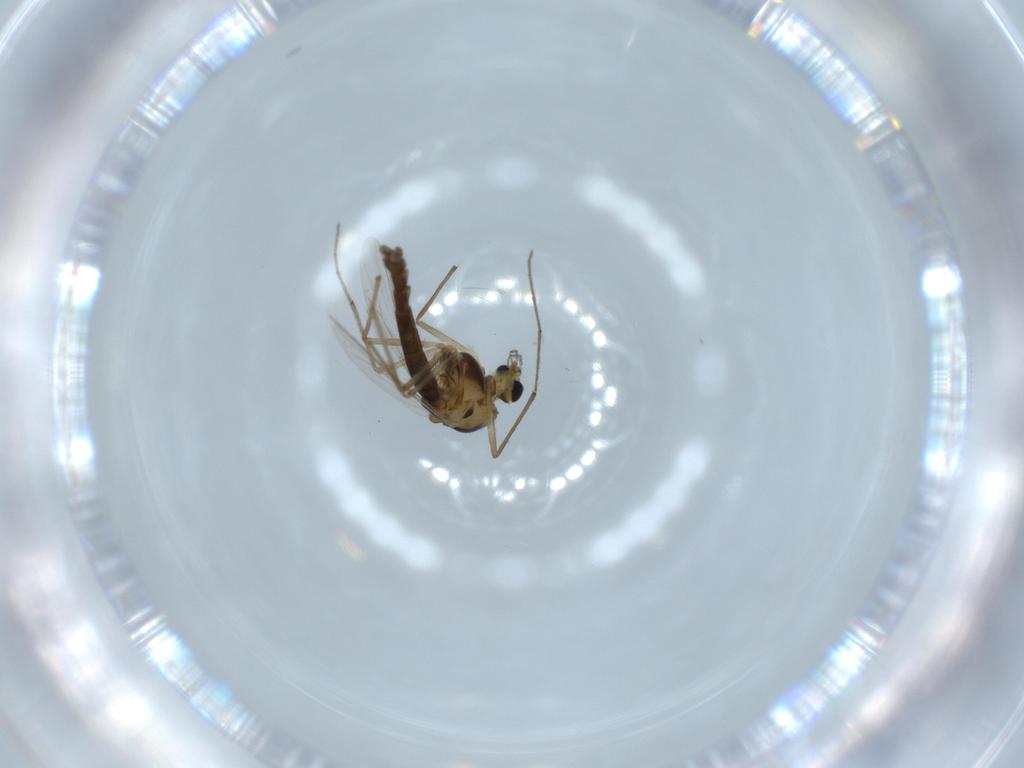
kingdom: Animalia
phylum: Arthropoda
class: Insecta
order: Diptera
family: Chironomidae
